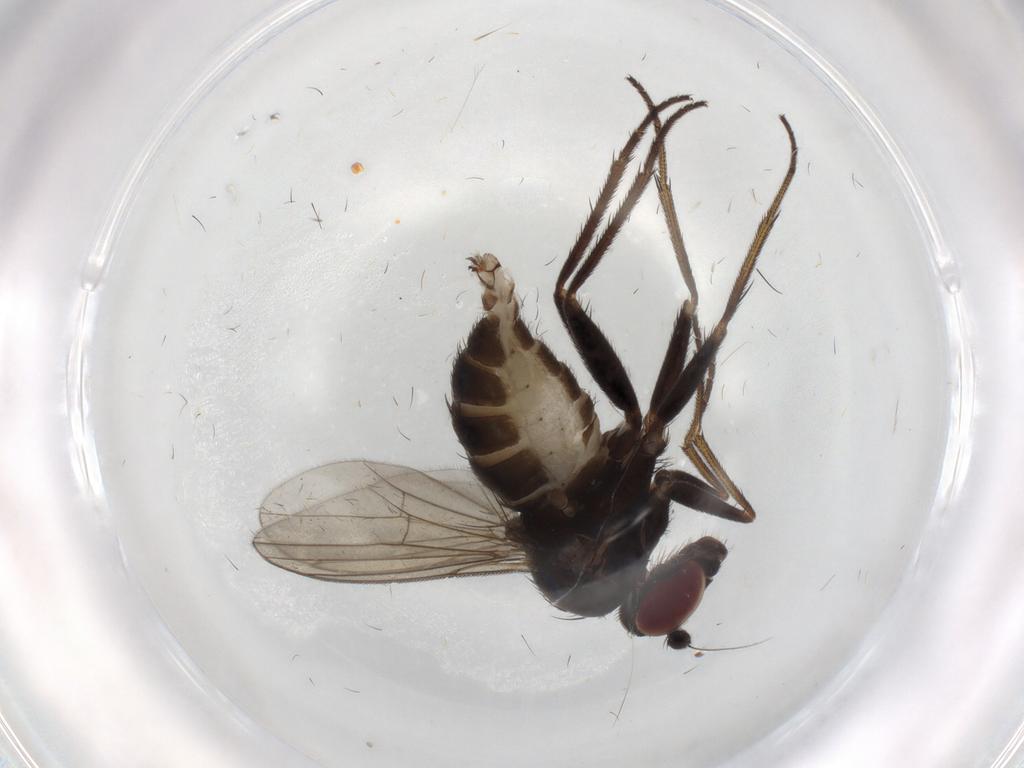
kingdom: Animalia
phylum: Arthropoda
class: Insecta
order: Diptera
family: Dolichopodidae
